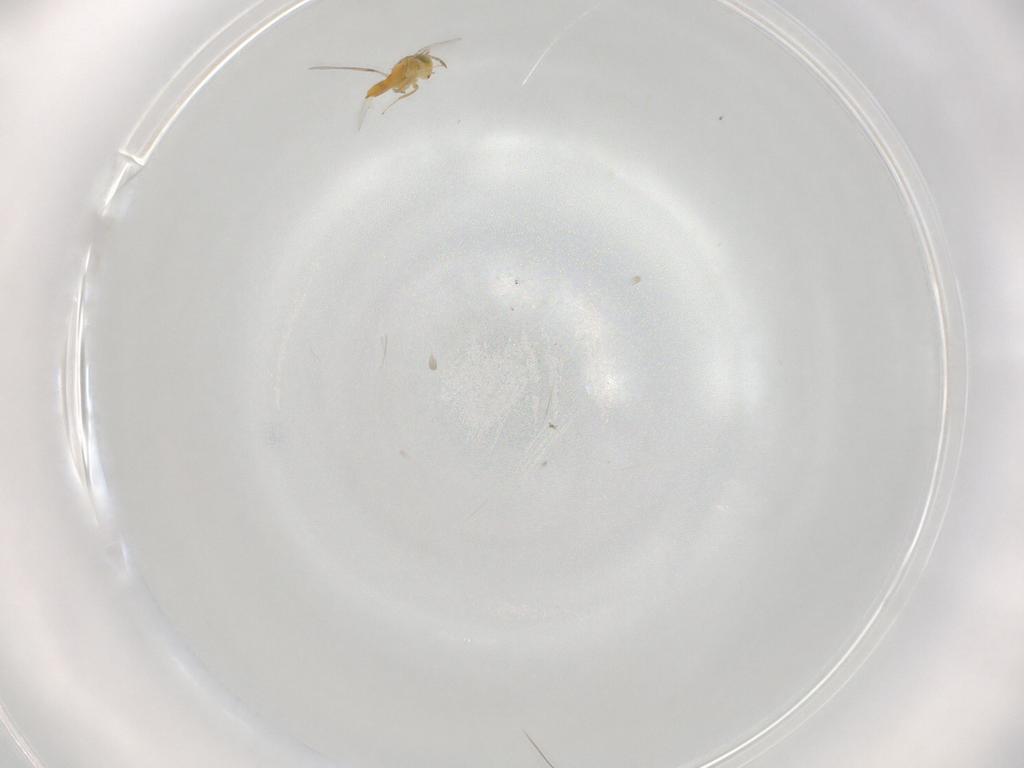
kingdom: Animalia
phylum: Arthropoda
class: Insecta
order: Hymenoptera
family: Aphelinidae
